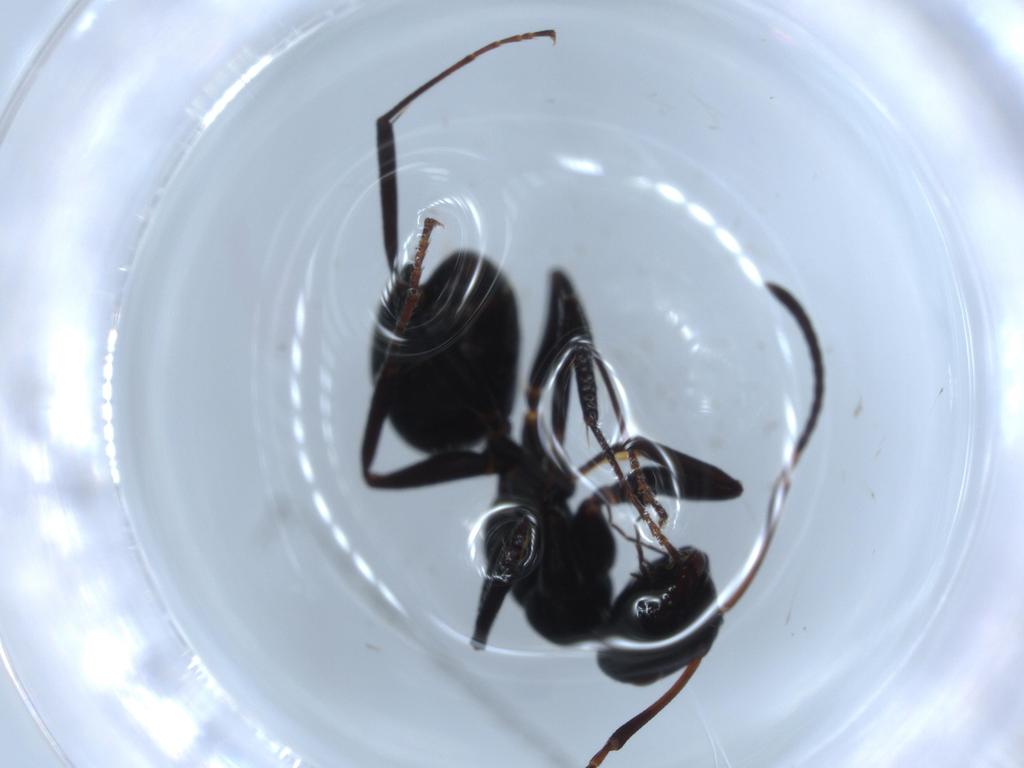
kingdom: Animalia
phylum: Arthropoda
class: Insecta
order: Hymenoptera
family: Formicidae
